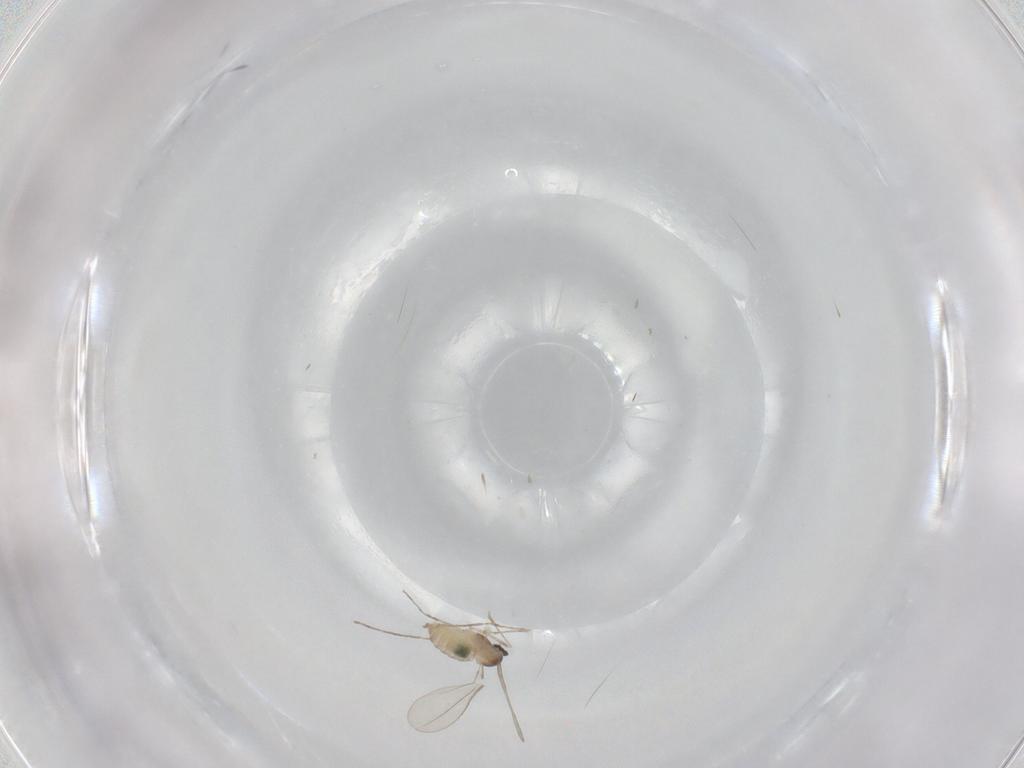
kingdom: Animalia
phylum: Arthropoda
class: Insecta
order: Diptera
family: Cecidomyiidae
